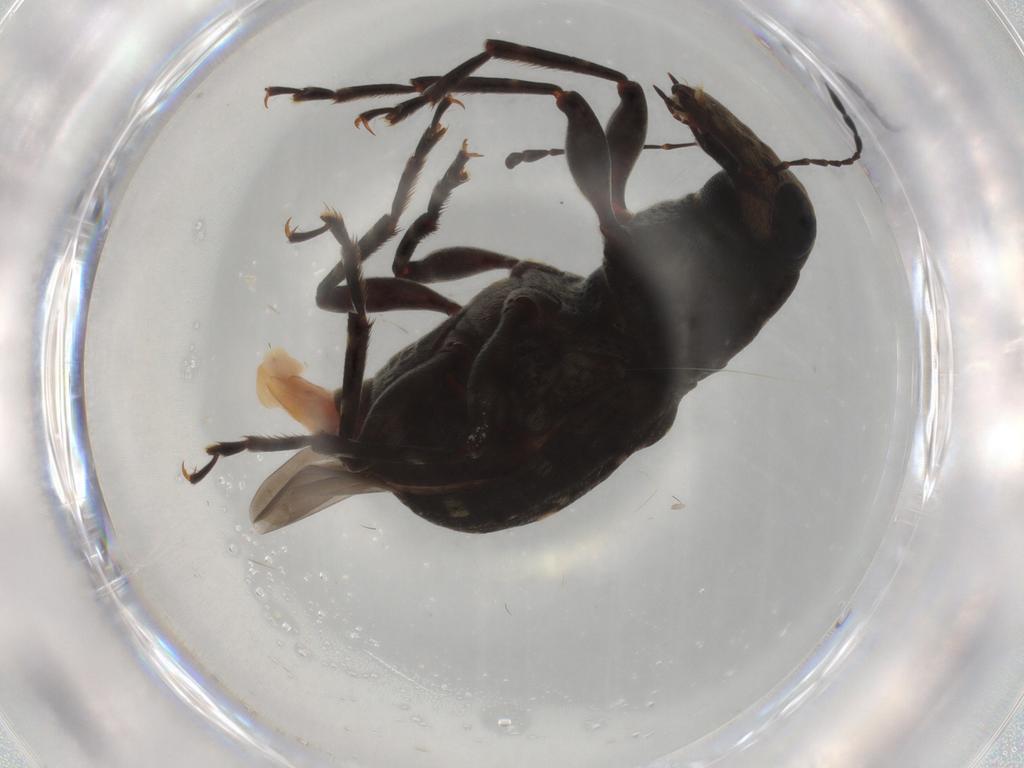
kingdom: Animalia
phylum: Arthropoda
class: Insecta
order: Coleoptera
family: Anthribidae
